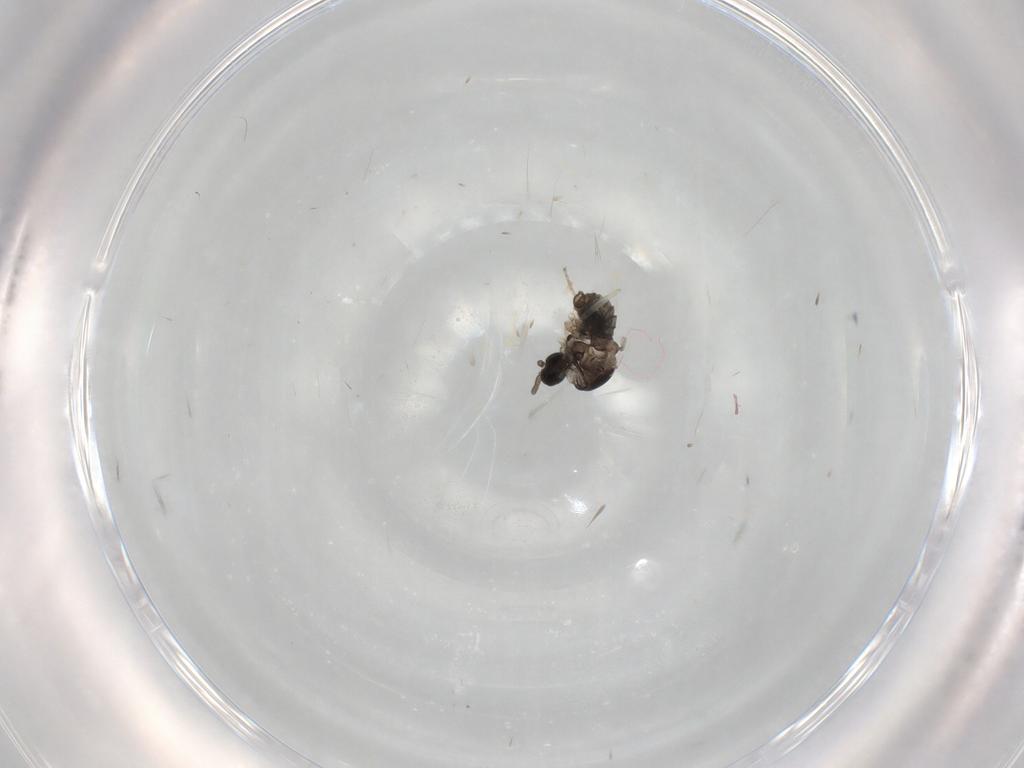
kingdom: Animalia
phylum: Arthropoda
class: Insecta
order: Diptera
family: Cecidomyiidae
